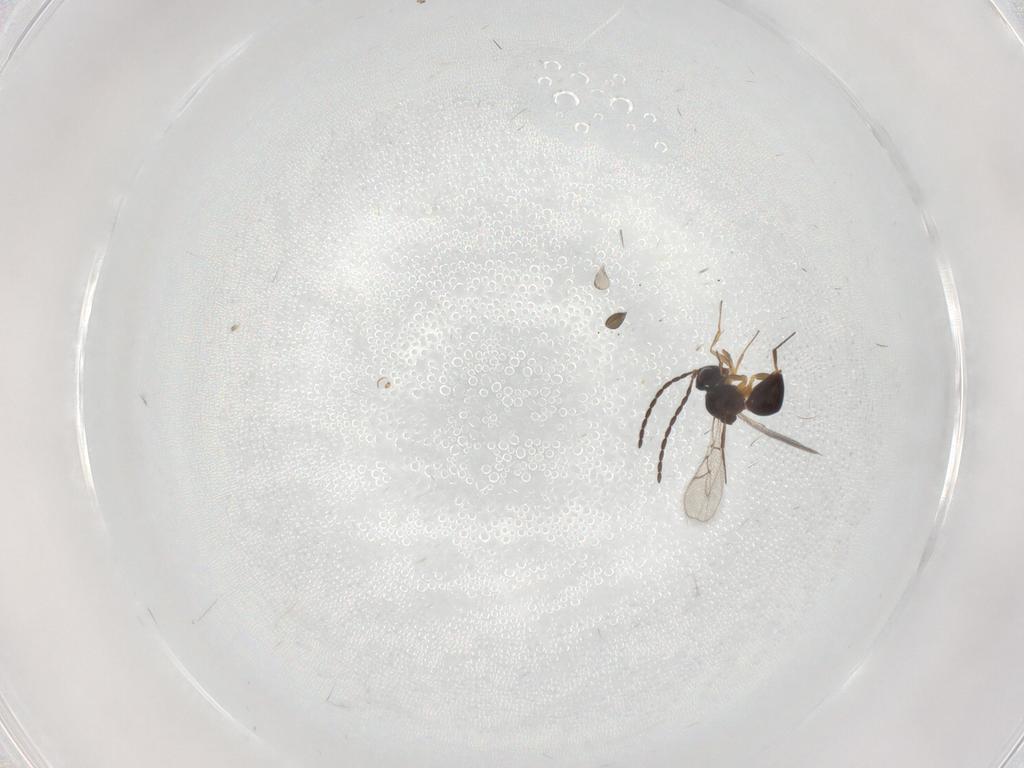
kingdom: Animalia
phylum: Arthropoda
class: Insecta
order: Hymenoptera
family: Figitidae
